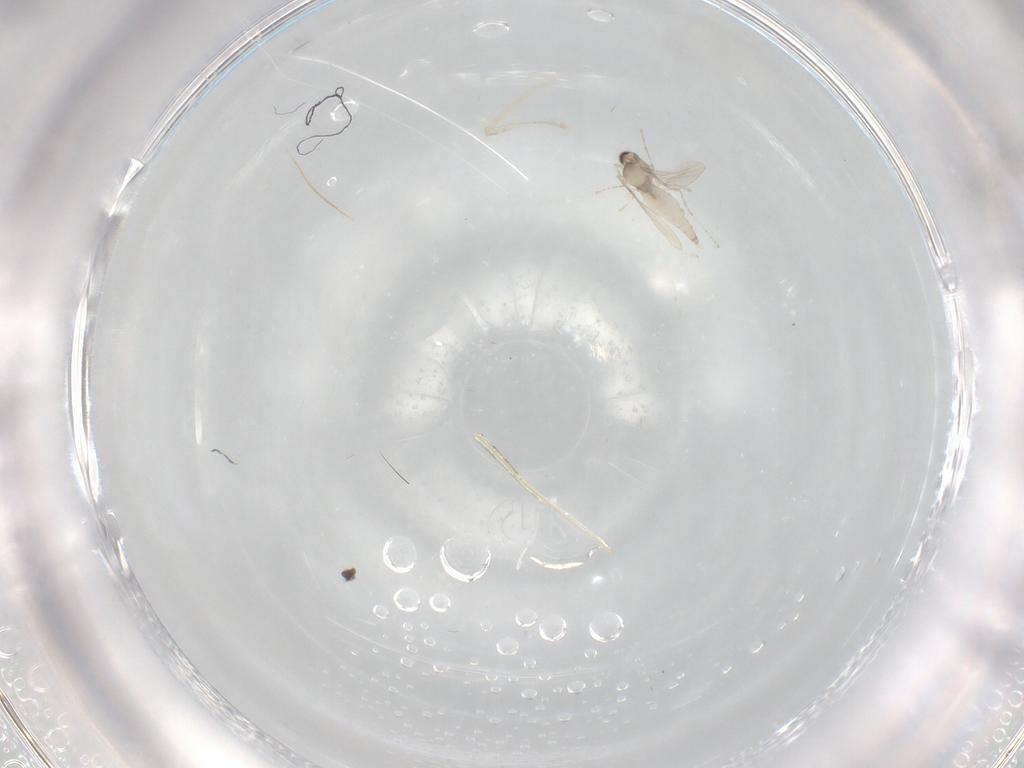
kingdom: Animalia
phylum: Arthropoda
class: Insecta
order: Diptera
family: Cecidomyiidae
